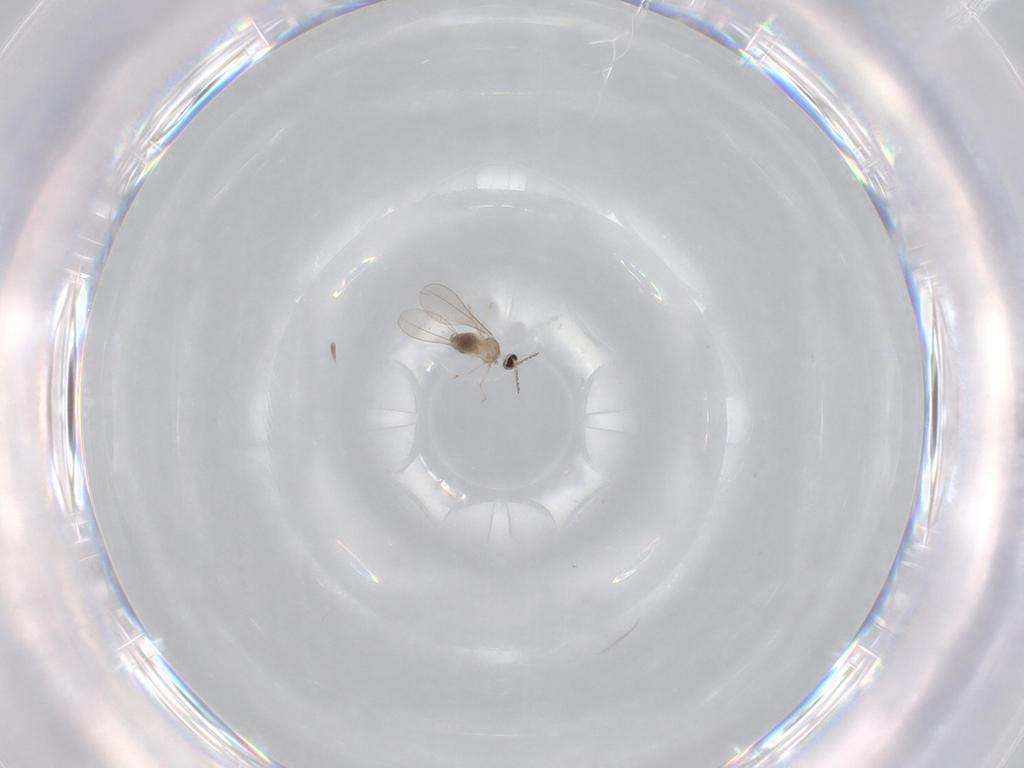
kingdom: Animalia
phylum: Arthropoda
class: Insecta
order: Diptera
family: Cecidomyiidae
